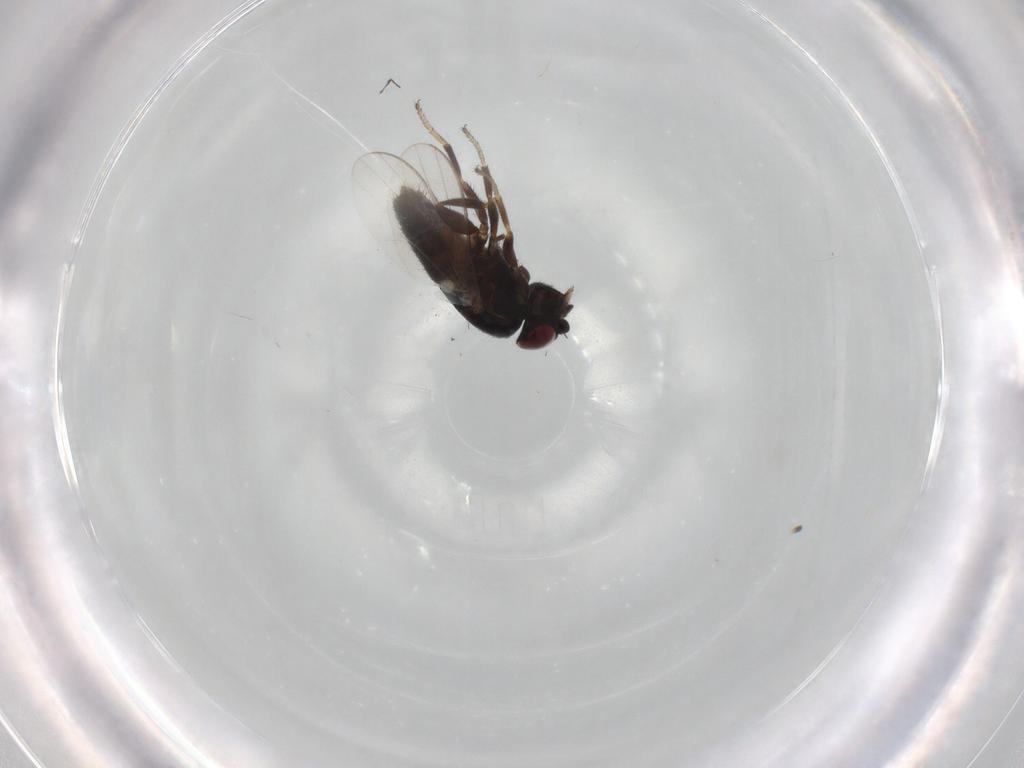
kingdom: Animalia
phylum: Arthropoda
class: Insecta
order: Diptera
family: Milichiidae
